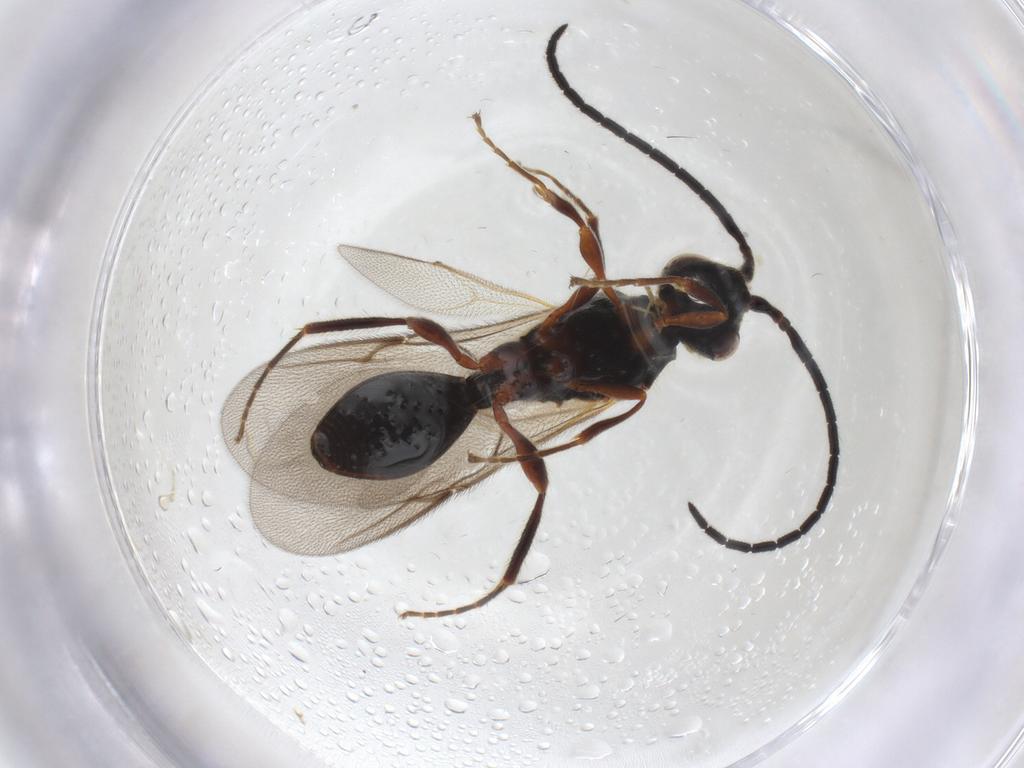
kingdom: Animalia
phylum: Arthropoda
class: Insecta
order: Hymenoptera
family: Diapriidae
